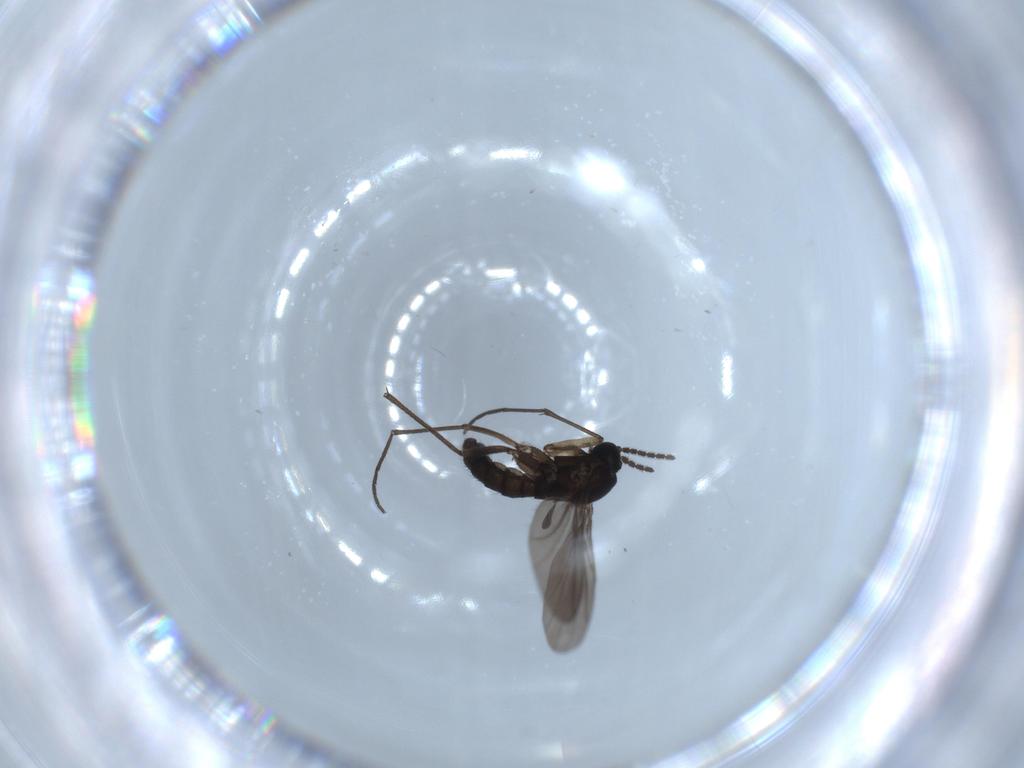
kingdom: Animalia
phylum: Arthropoda
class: Insecta
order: Diptera
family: Sciaridae
